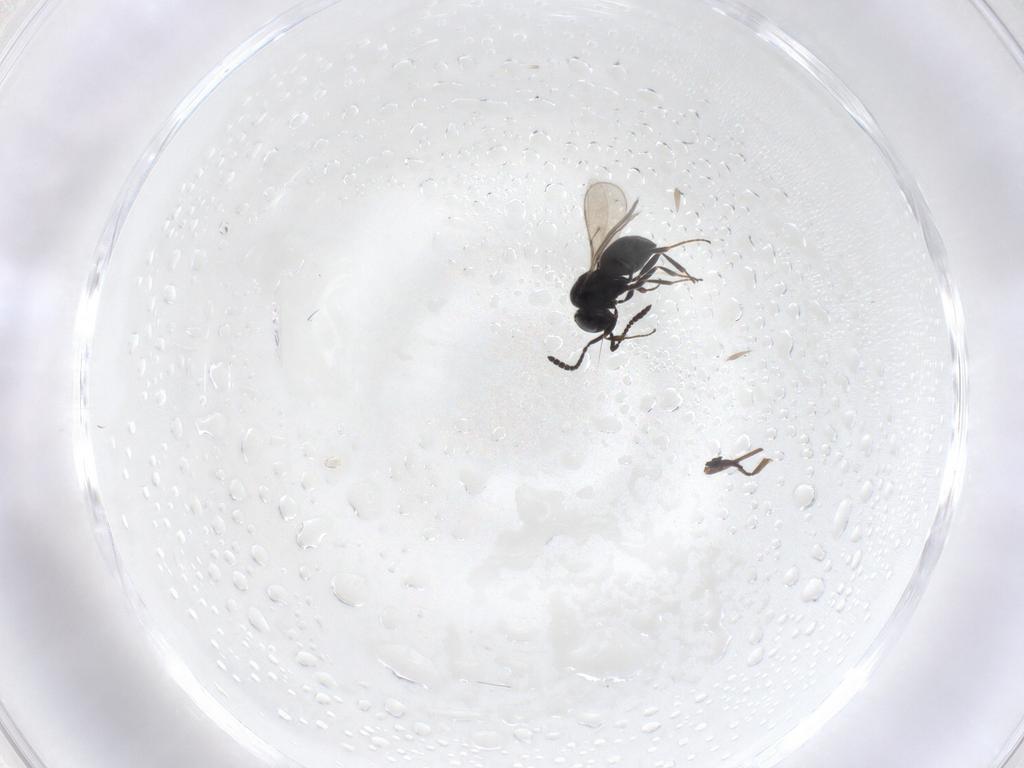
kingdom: Animalia
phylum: Arthropoda
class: Insecta
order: Hymenoptera
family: Scelionidae
